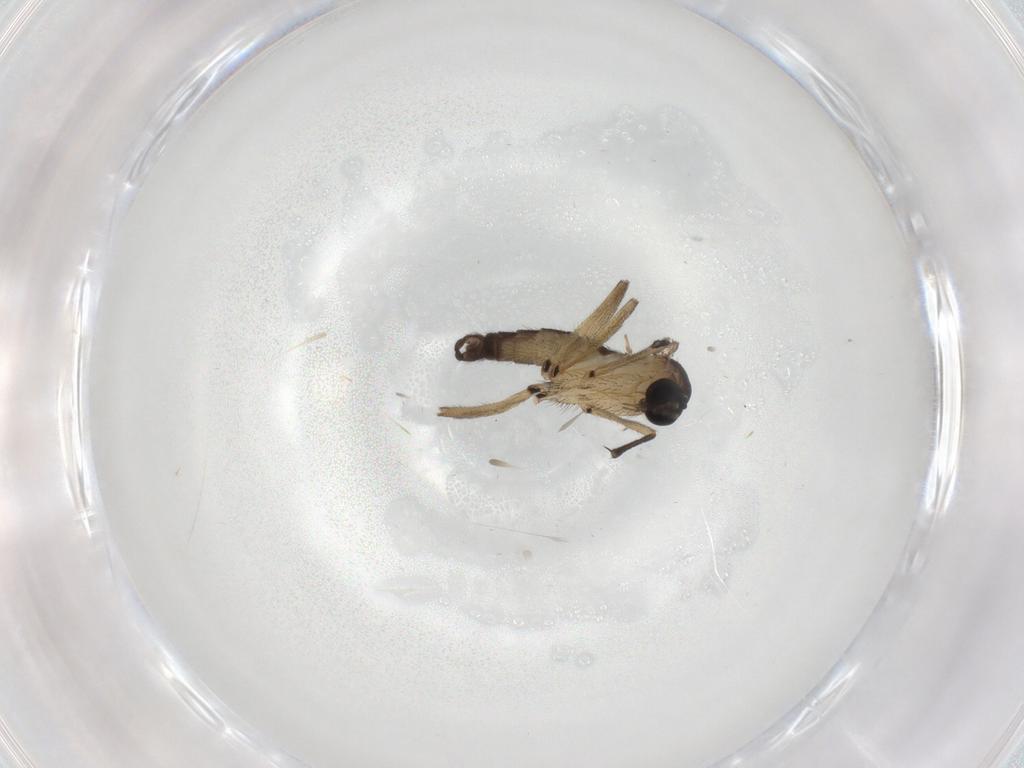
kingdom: Animalia
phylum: Arthropoda
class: Insecta
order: Diptera
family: Sciaridae
